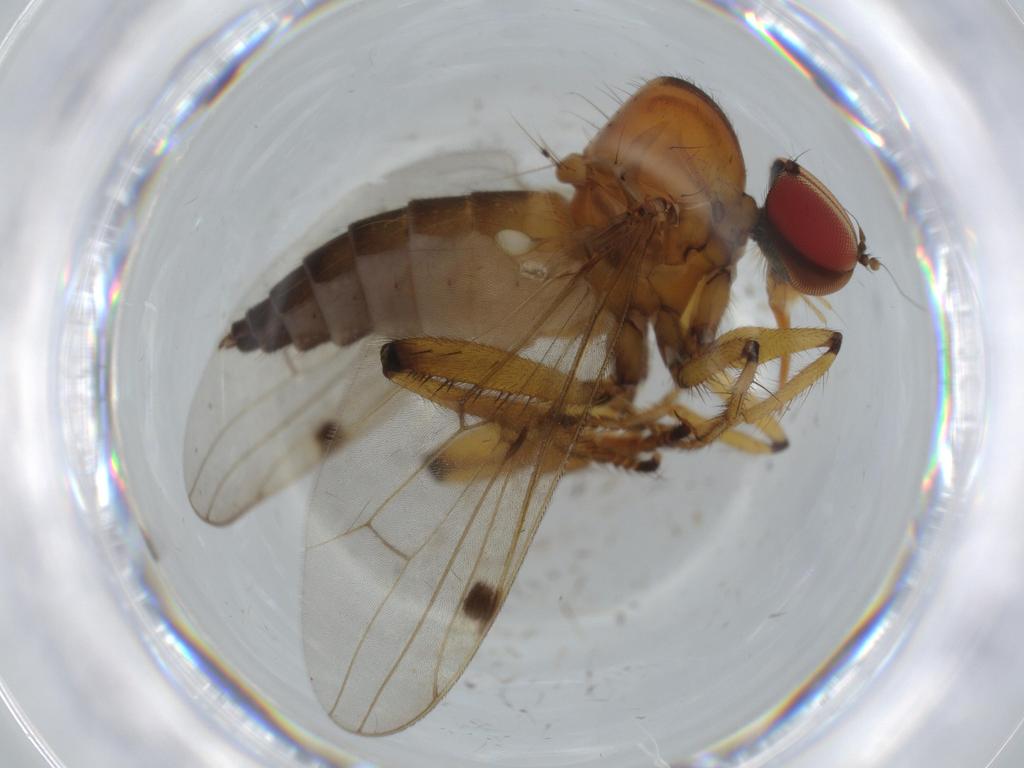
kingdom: Animalia
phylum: Arthropoda
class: Insecta
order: Diptera
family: Hybotidae
